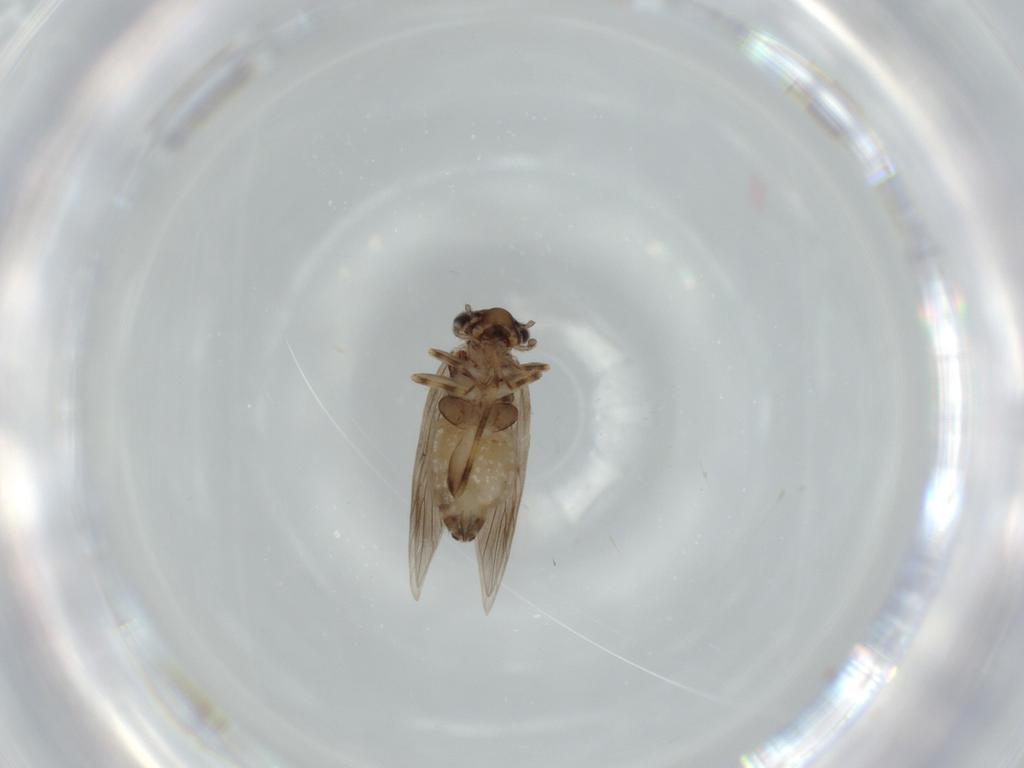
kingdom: Animalia
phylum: Arthropoda
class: Insecta
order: Psocodea
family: Lepidopsocidae
